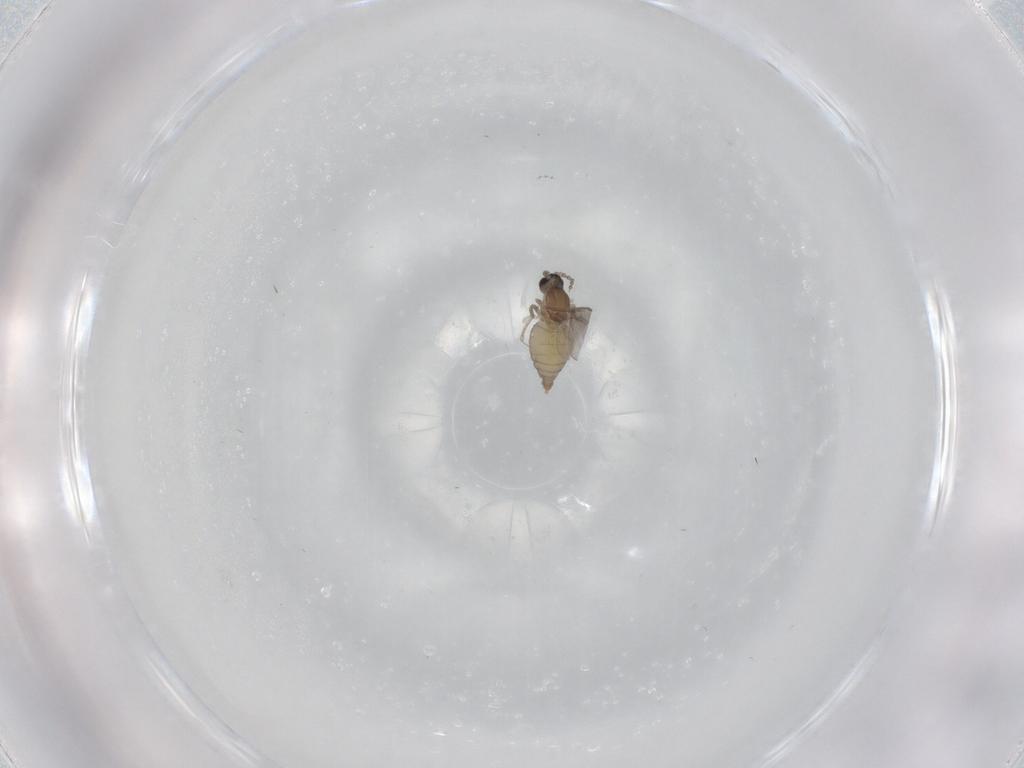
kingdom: Animalia
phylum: Arthropoda
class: Insecta
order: Diptera
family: Cecidomyiidae
